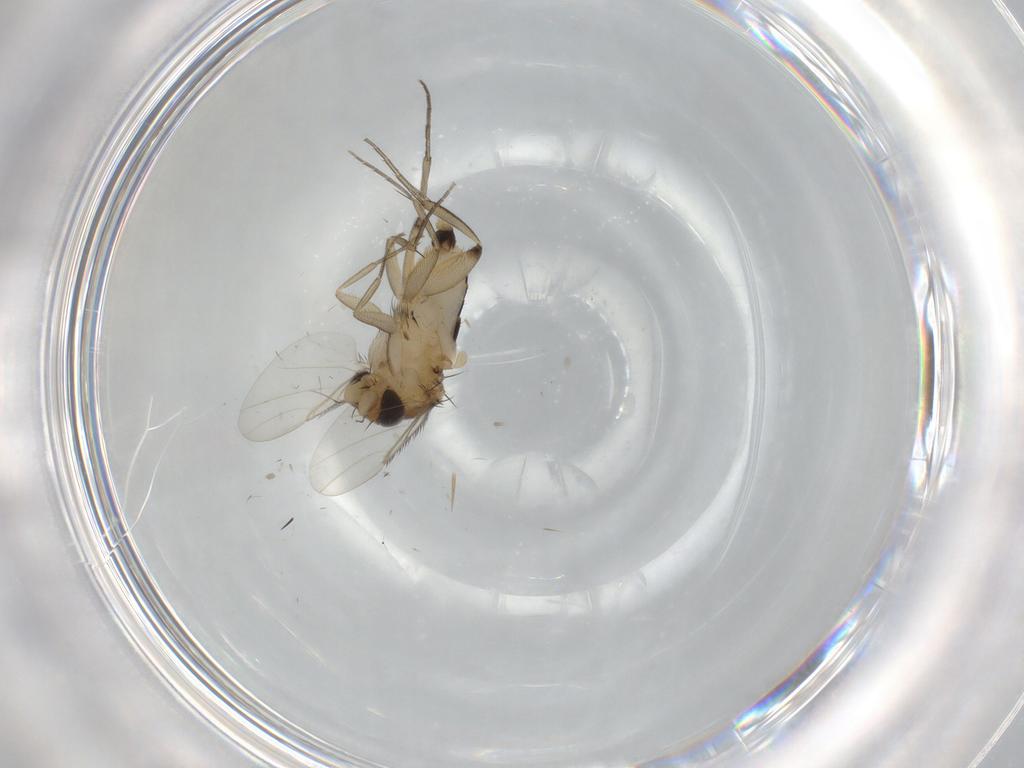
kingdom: Animalia
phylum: Arthropoda
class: Insecta
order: Diptera
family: Phoridae
